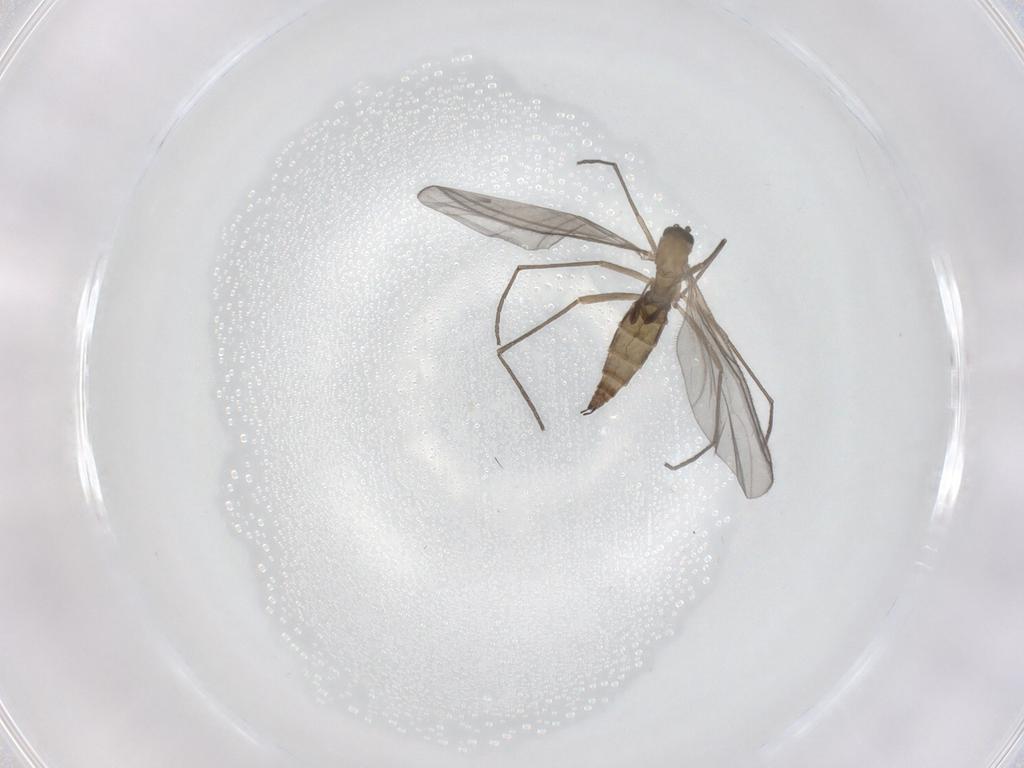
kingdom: Animalia
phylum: Arthropoda
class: Insecta
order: Diptera
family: Sciaridae
